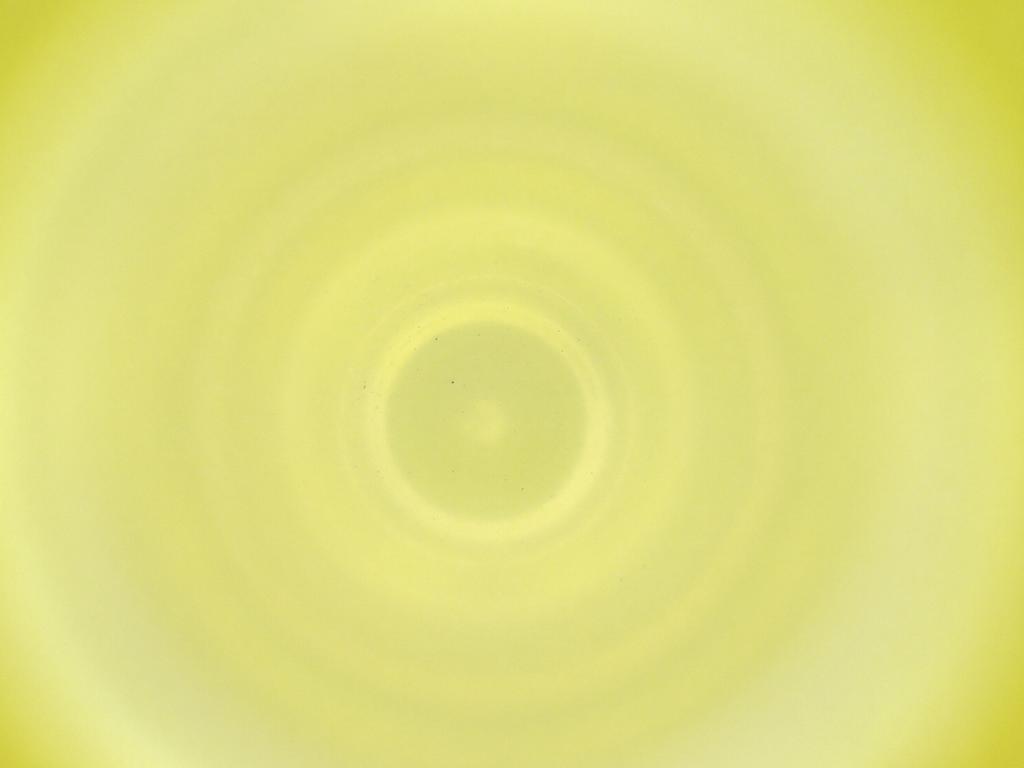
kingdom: Animalia
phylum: Arthropoda
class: Insecta
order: Diptera
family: Cecidomyiidae
